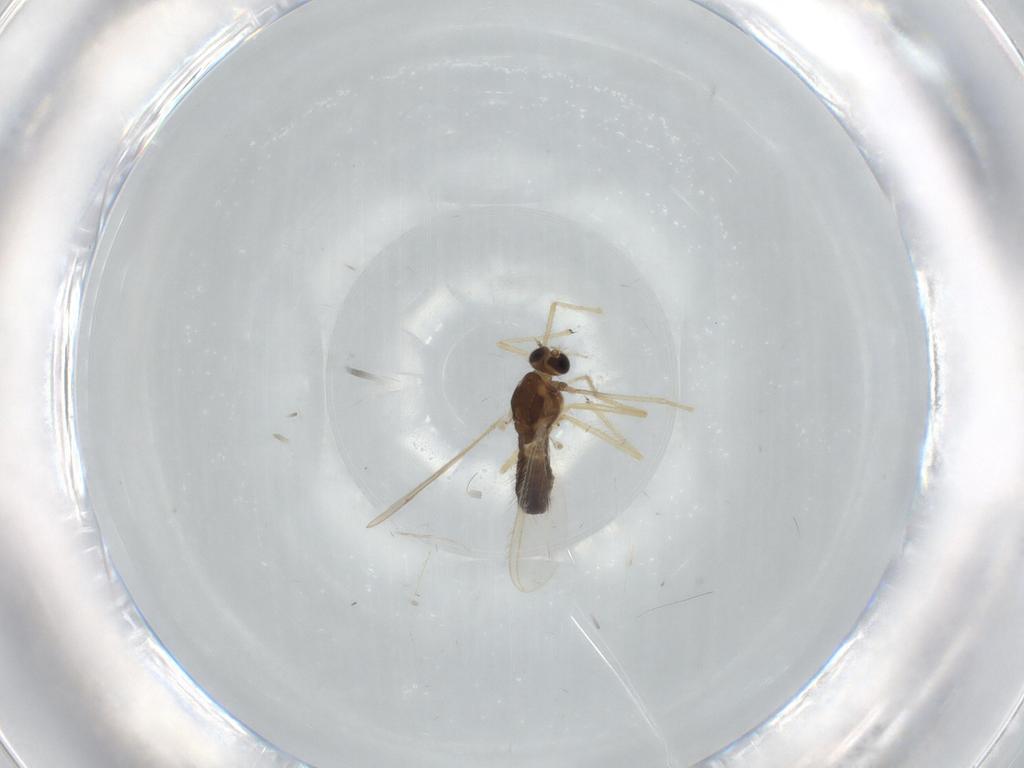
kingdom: Animalia
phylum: Arthropoda
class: Insecta
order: Diptera
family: Chironomidae
